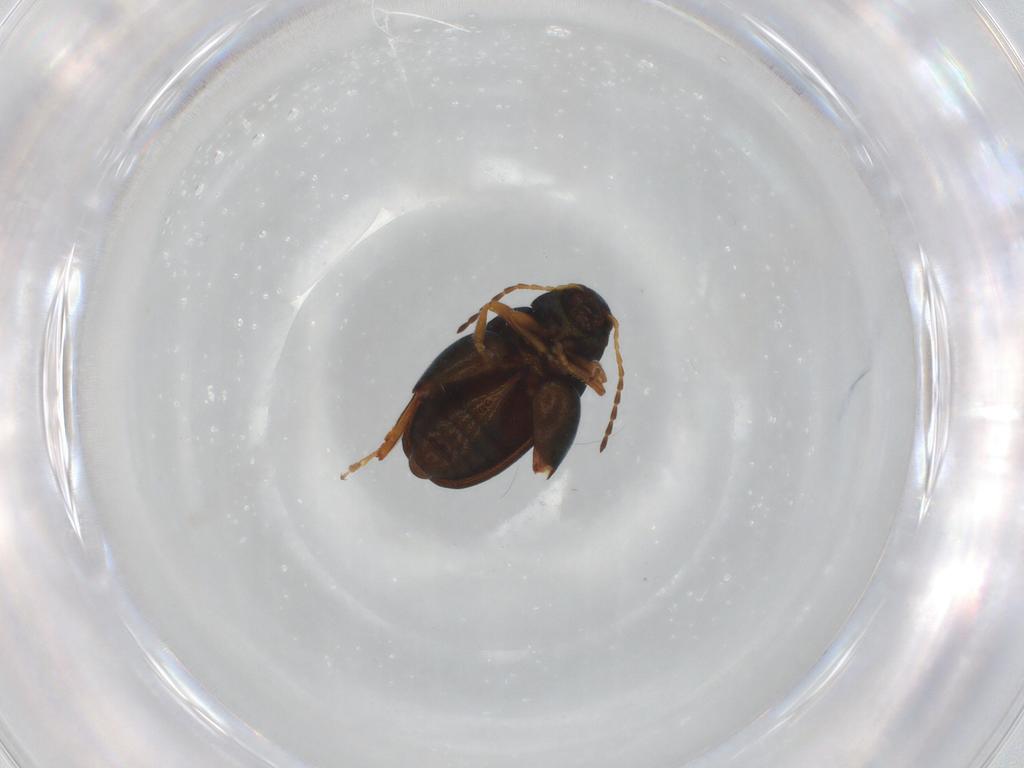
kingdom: Animalia
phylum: Arthropoda
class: Insecta
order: Coleoptera
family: Chrysomelidae
